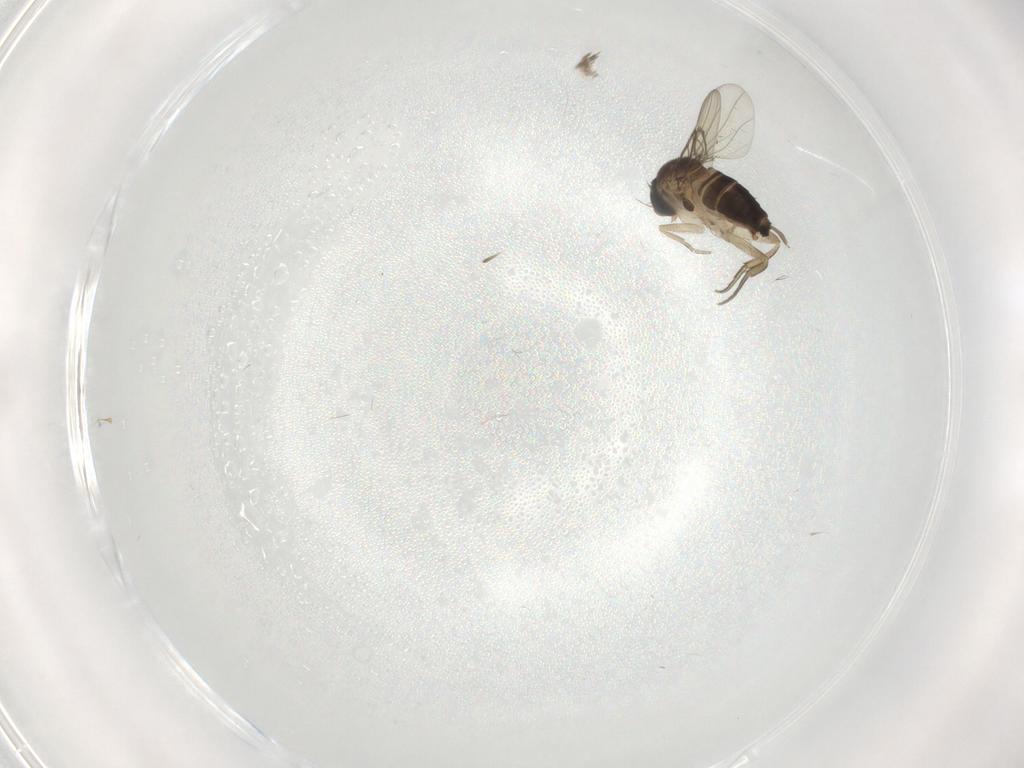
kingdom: Animalia
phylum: Arthropoda
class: Insecta
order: Diptera
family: Cecidomyiidae
